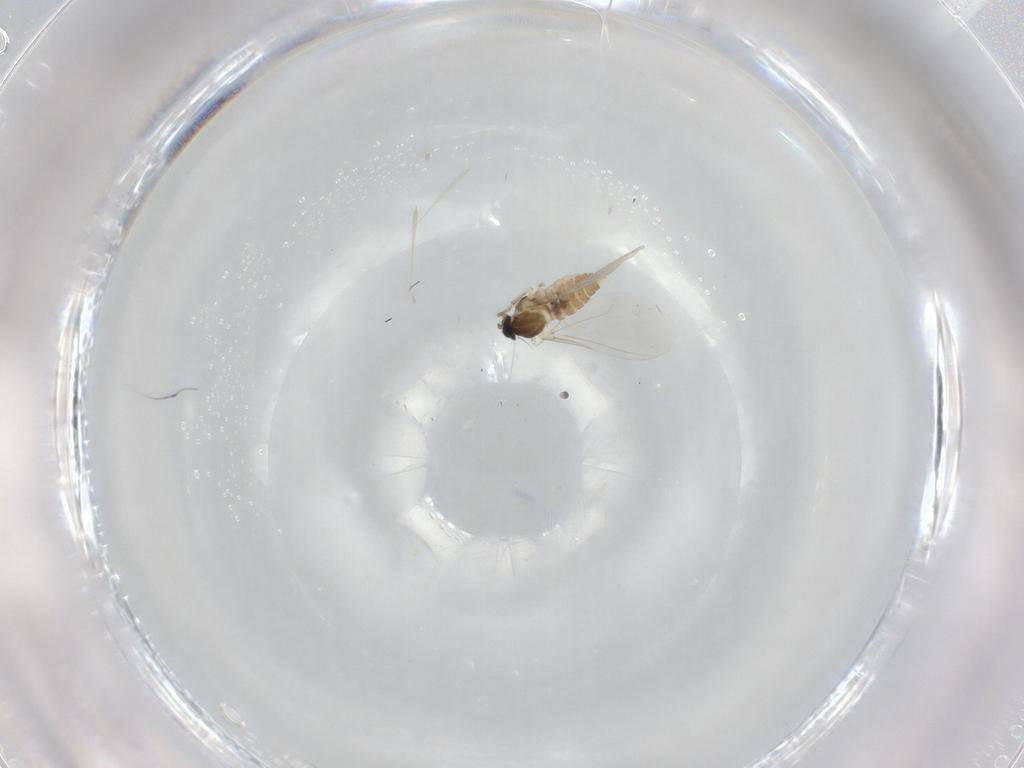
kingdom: Animalia
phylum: Arthropoda
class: Insecta
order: Diptera
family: Cecidomyiidae
